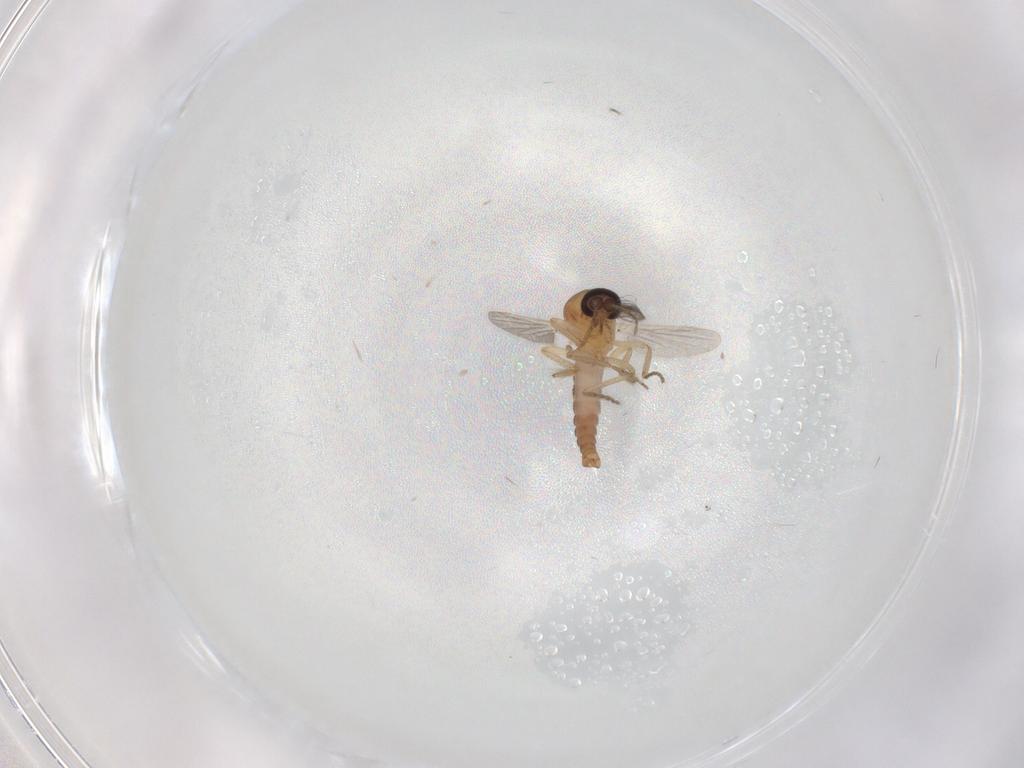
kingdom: Animalia
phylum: Arthropoda
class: Insecta
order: Diptera
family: Ceratopogonidae
